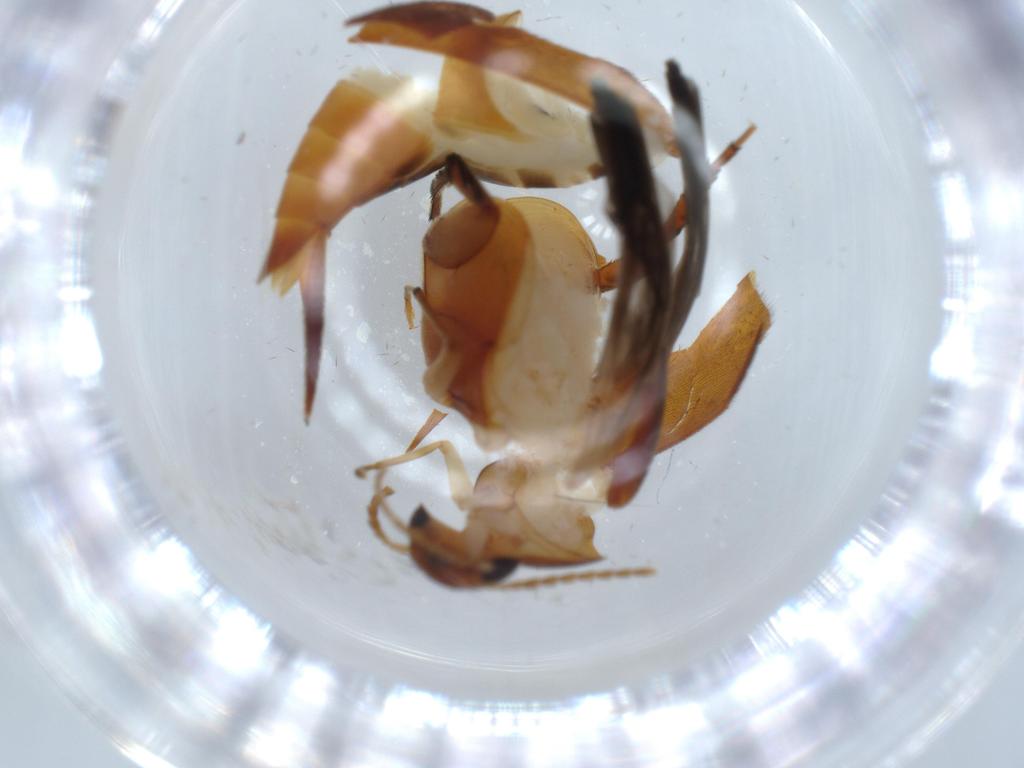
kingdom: Animalia
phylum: Arthropoda
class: Insecta
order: Coleoptera
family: Mordellidae
